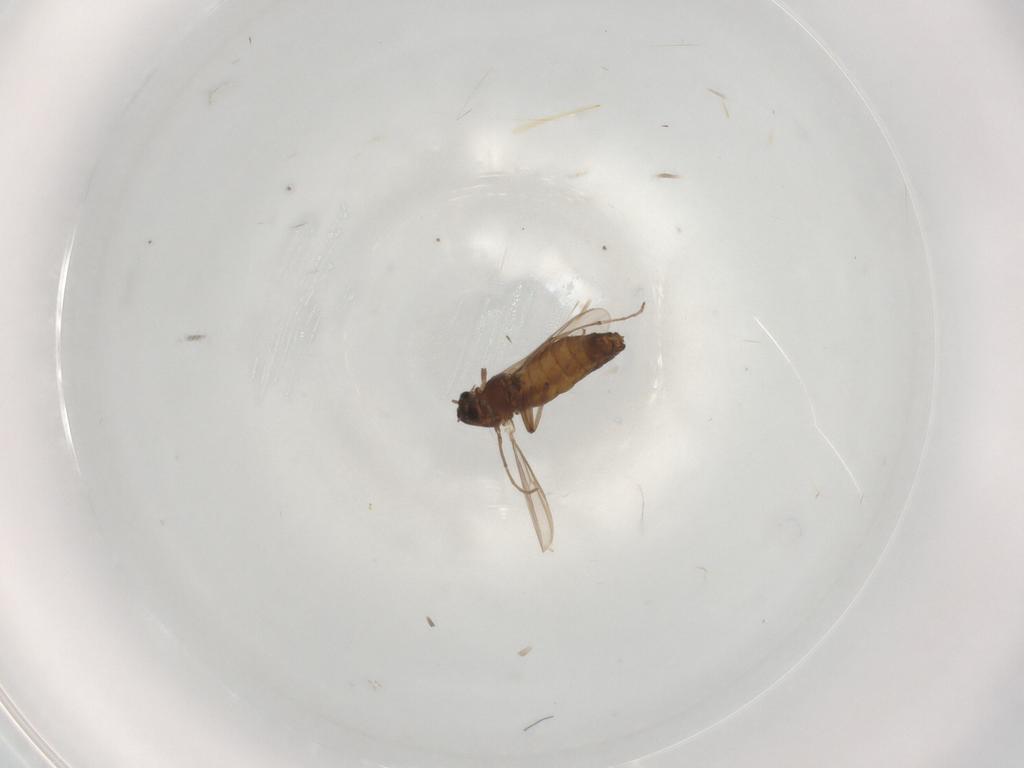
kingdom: Animalia
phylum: Arthropoda
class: Insecta
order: Diptera
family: Chironomidae
